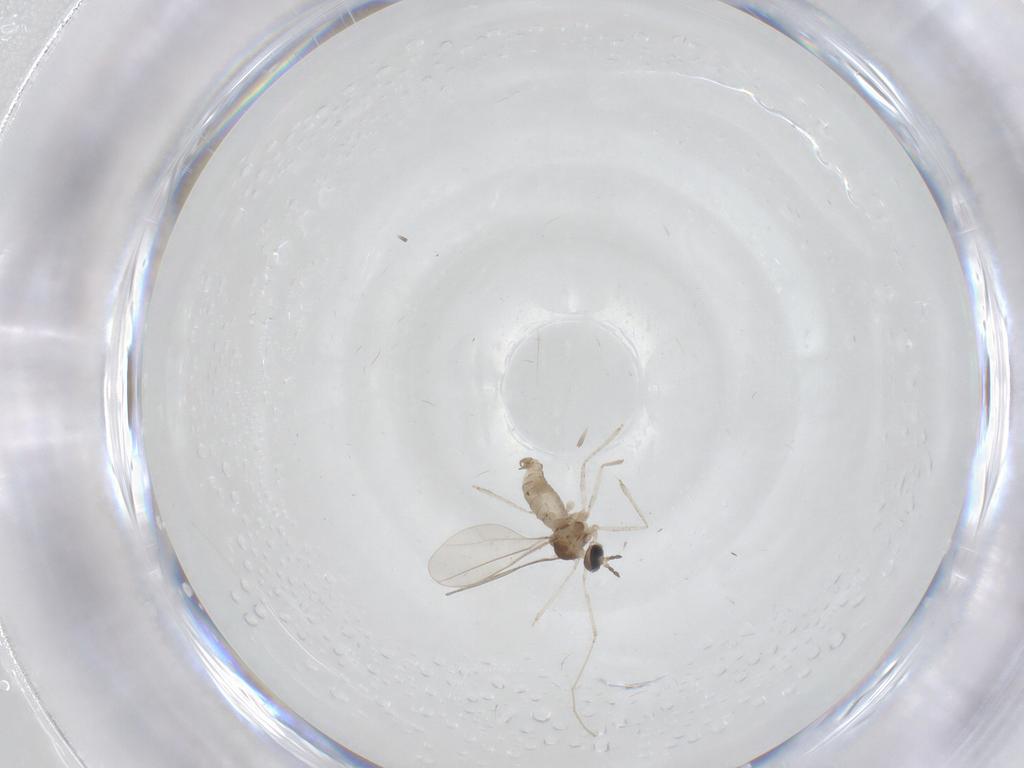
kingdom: Animalia
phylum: Arthropoda
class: Insecta
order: Diptera
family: Cecidomyiidae
